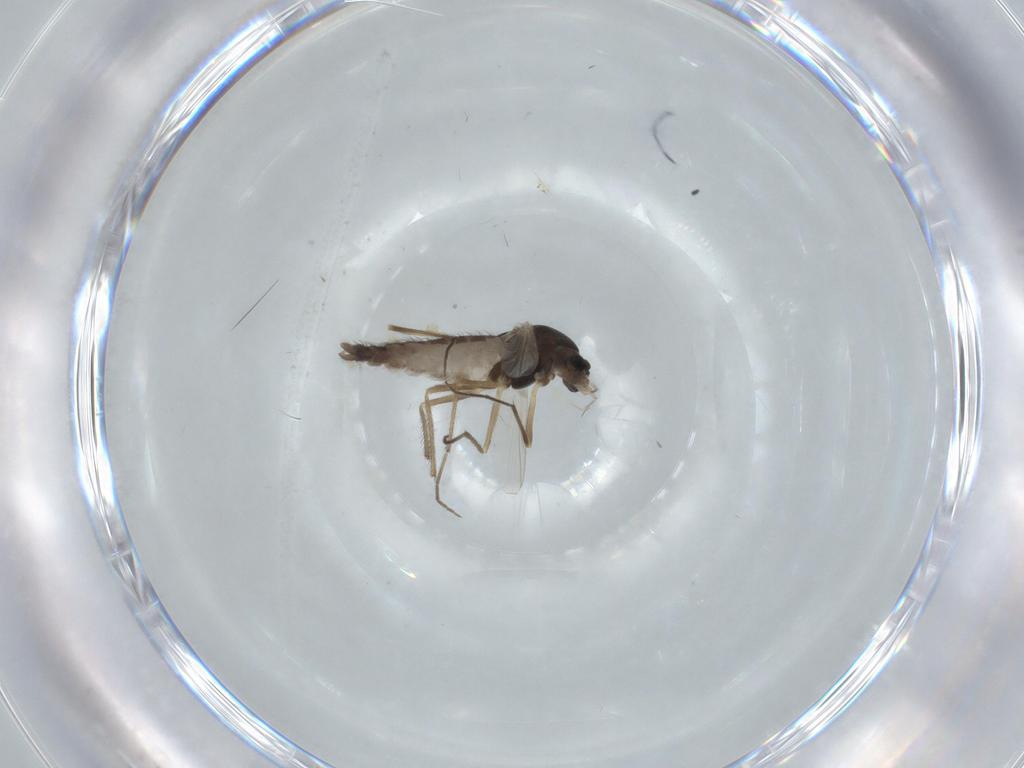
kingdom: Animalia
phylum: Arthropoda
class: Insecta
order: Diptera
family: Chironomidae
